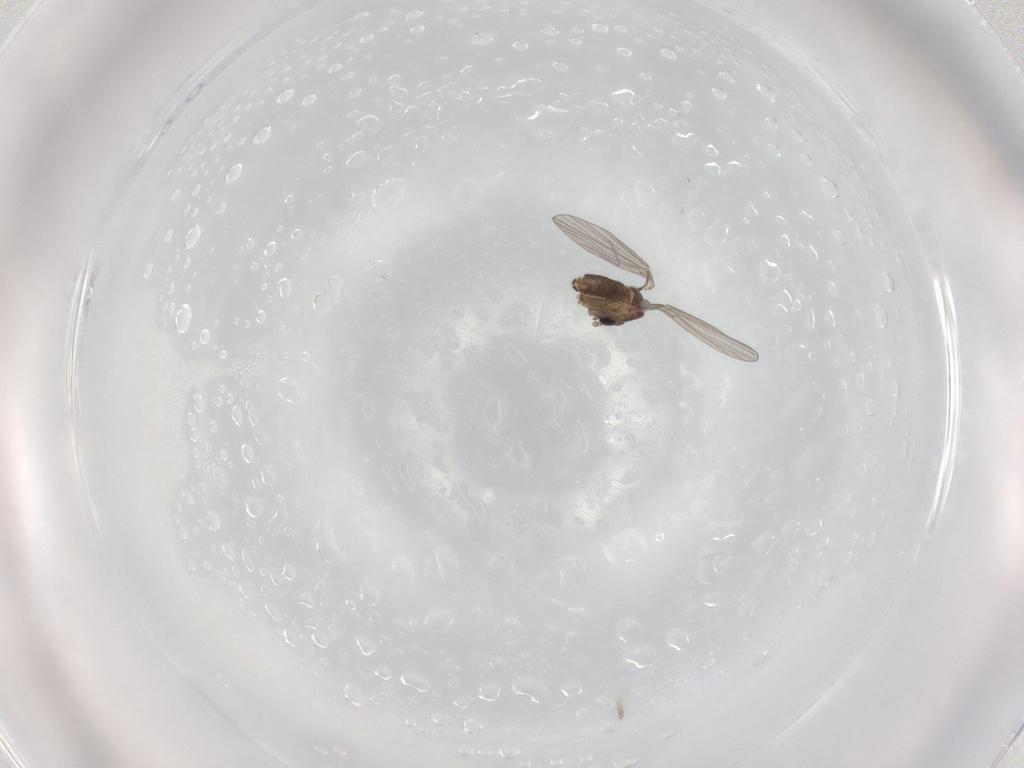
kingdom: Animalia
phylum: Arthropoda
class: Insecta
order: Diptera
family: Psychodidae
